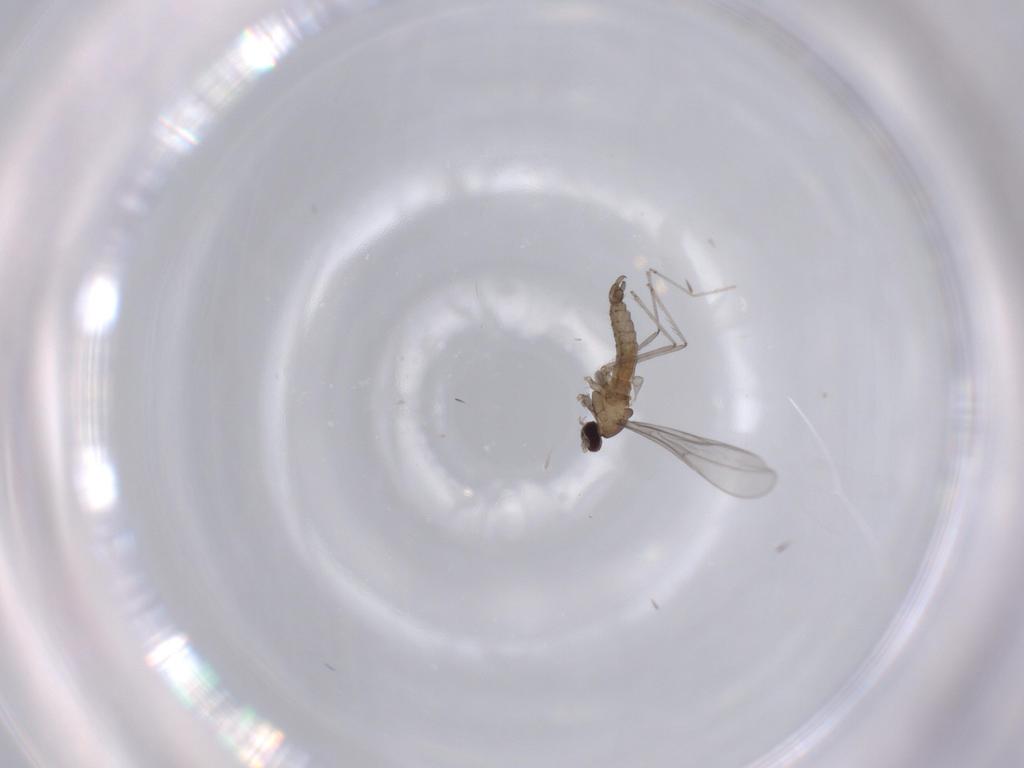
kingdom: Animalia
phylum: Arthropoda
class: Insecta
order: Diptera
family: Cecidomyiidae
